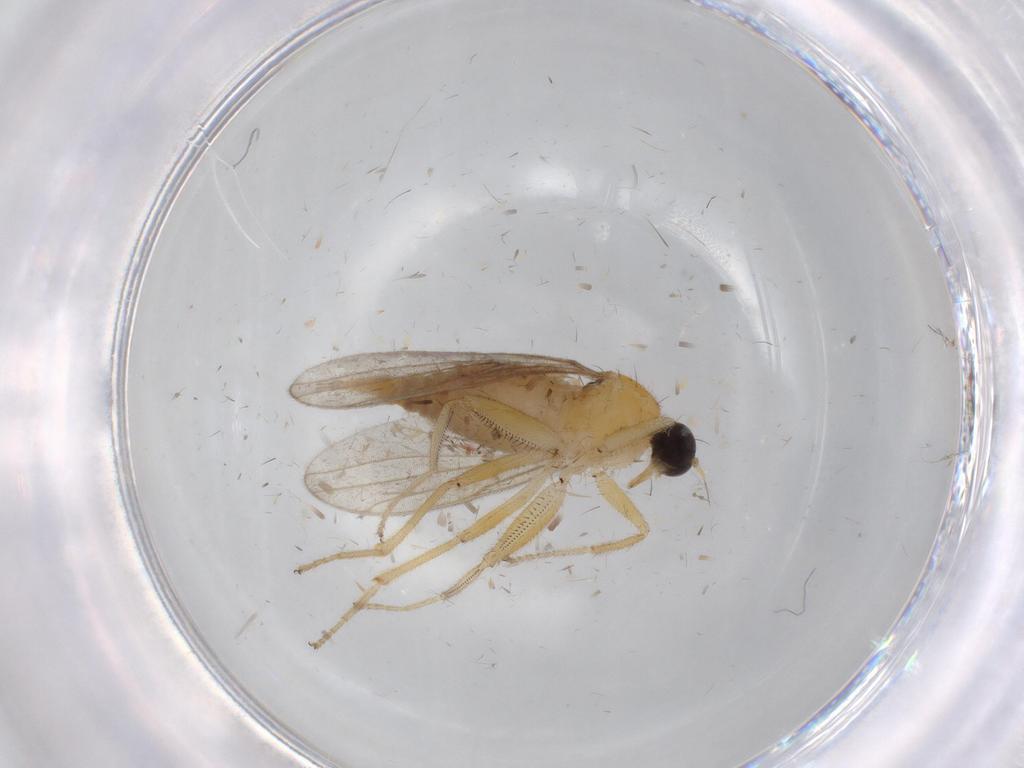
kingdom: Animalia
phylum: Arthropoda
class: Insecta
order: Diptera
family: Hybotidae
